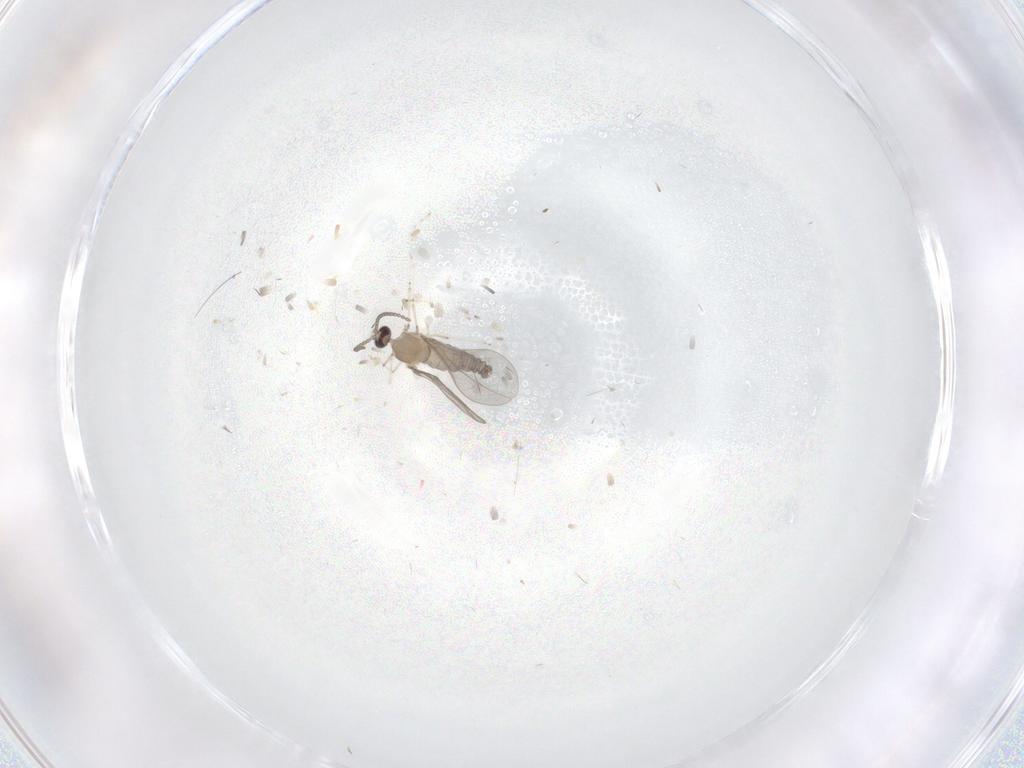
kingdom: Animalia
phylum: Arthropoda
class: Insecta
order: Diptera
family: Cecidomyiidae
